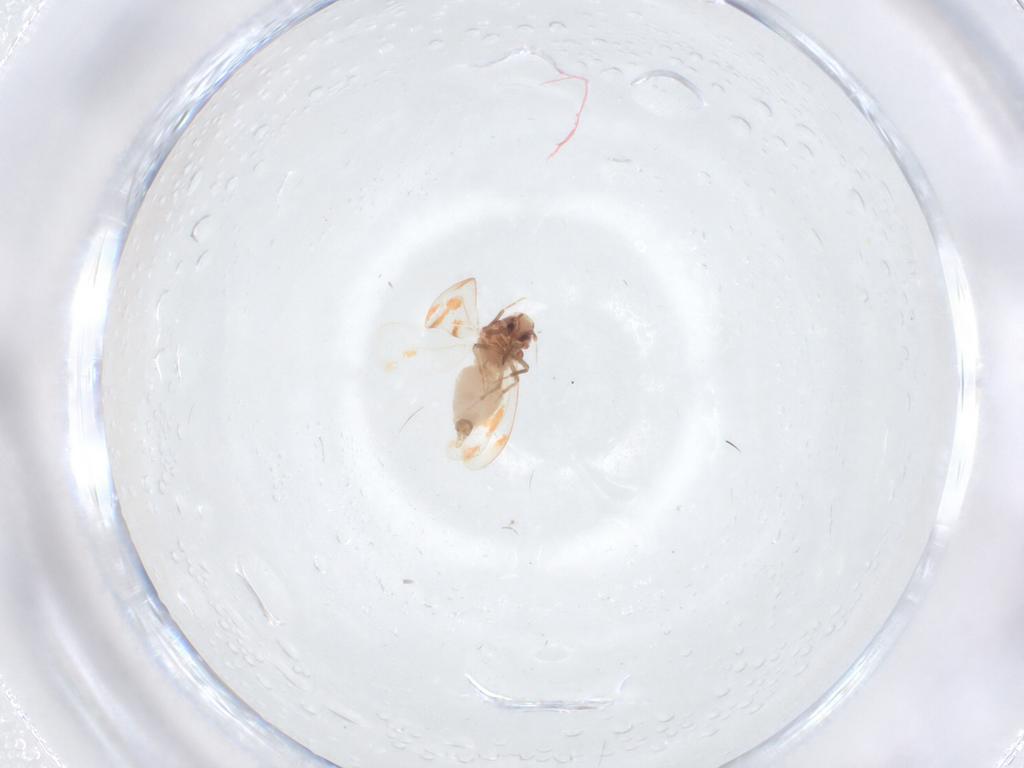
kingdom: Animalia
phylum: Arthropoda
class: Insecta
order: Hemiptera
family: Aleyrodidae
